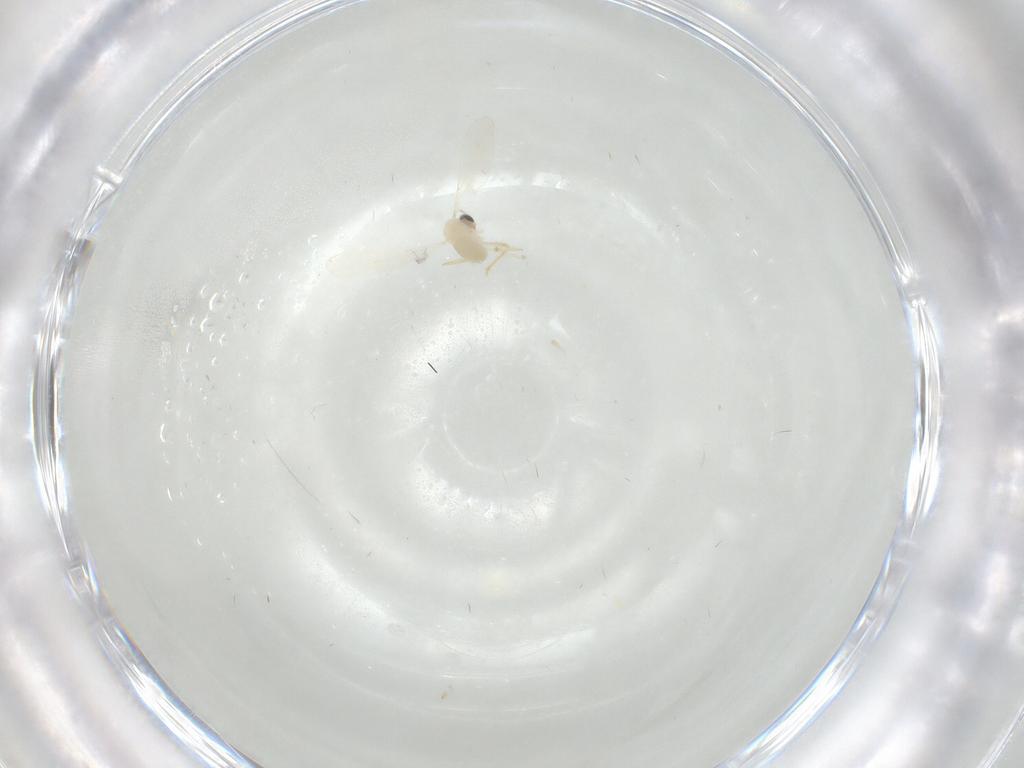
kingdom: Animalia
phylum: Arthropoda
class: Insecta
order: Diptera
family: Cecidomyiidae
